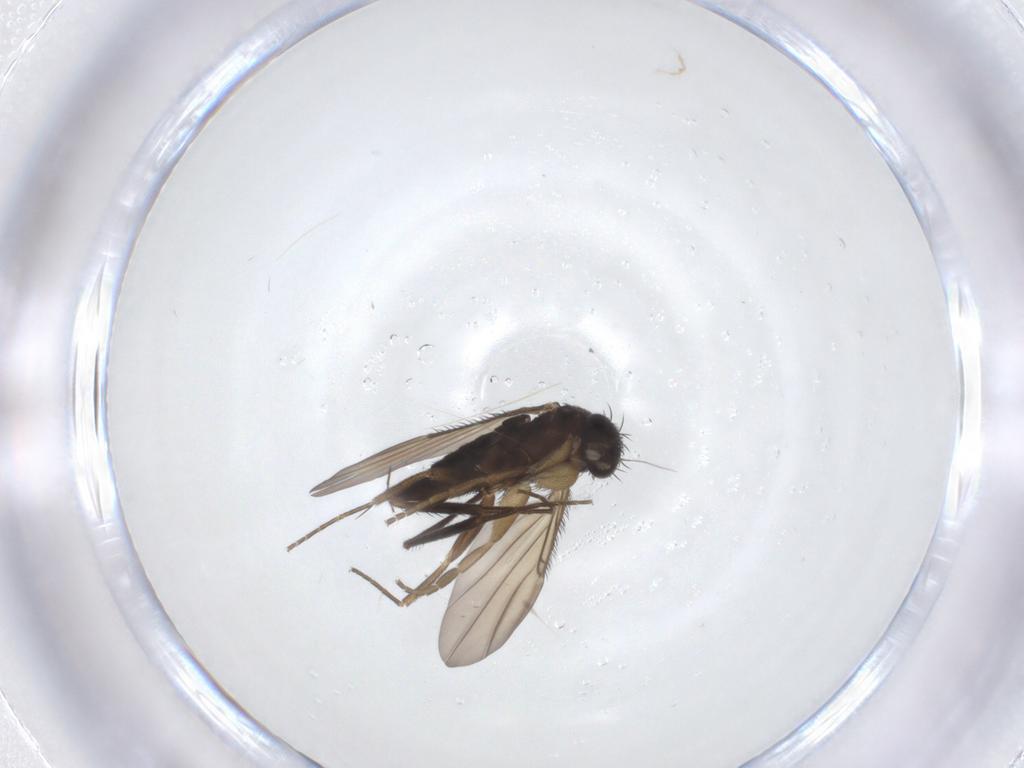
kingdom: Animalia
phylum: Arthropoda
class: Insecta
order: Diptera
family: Phoridae
